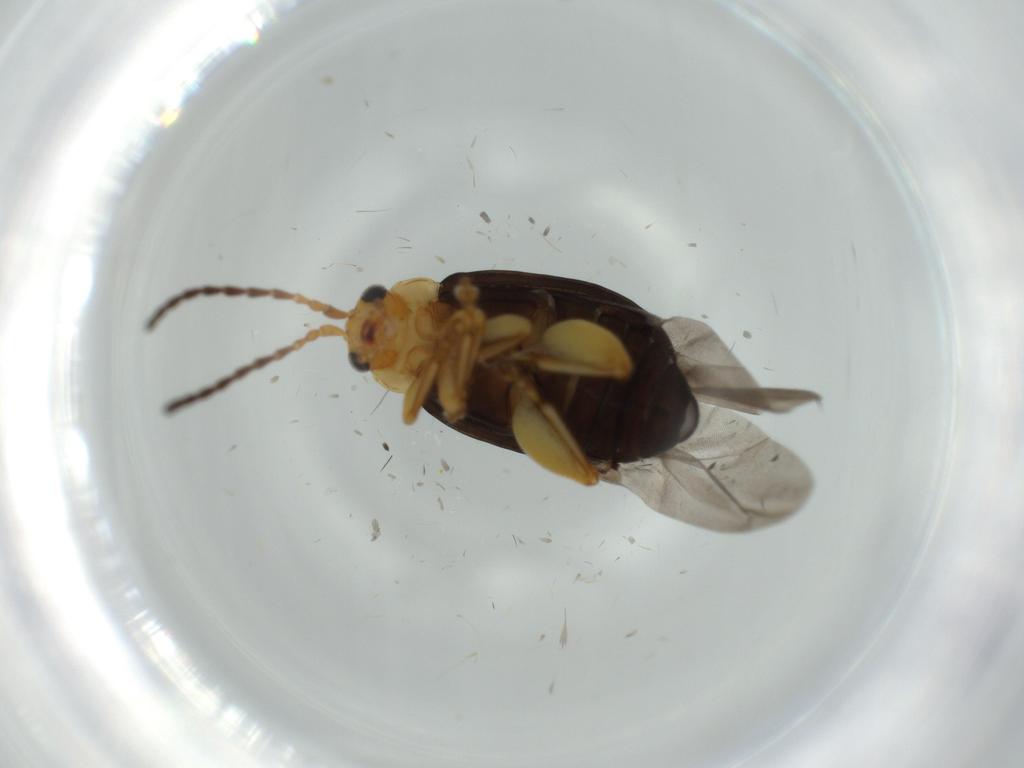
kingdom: Animalia
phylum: Arthropoda
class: Insecta
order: Coleoptera
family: Chrysomelidae
